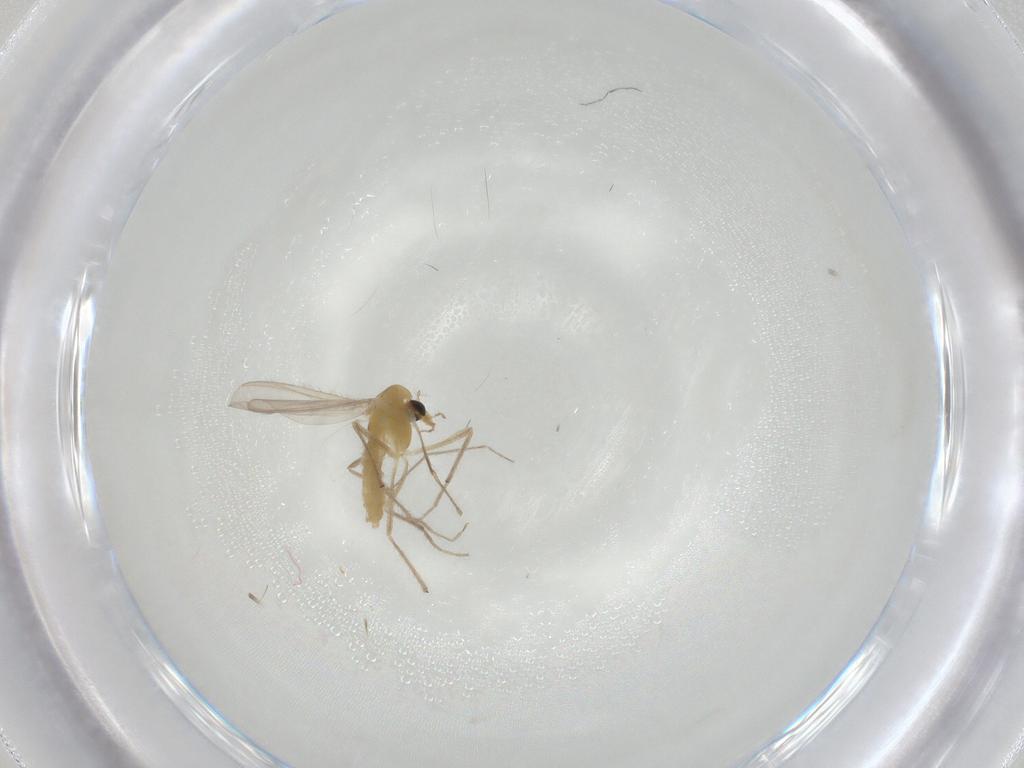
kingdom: Animalia
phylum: Arthropoda
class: Insecta
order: Diptera
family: Chironomidae
